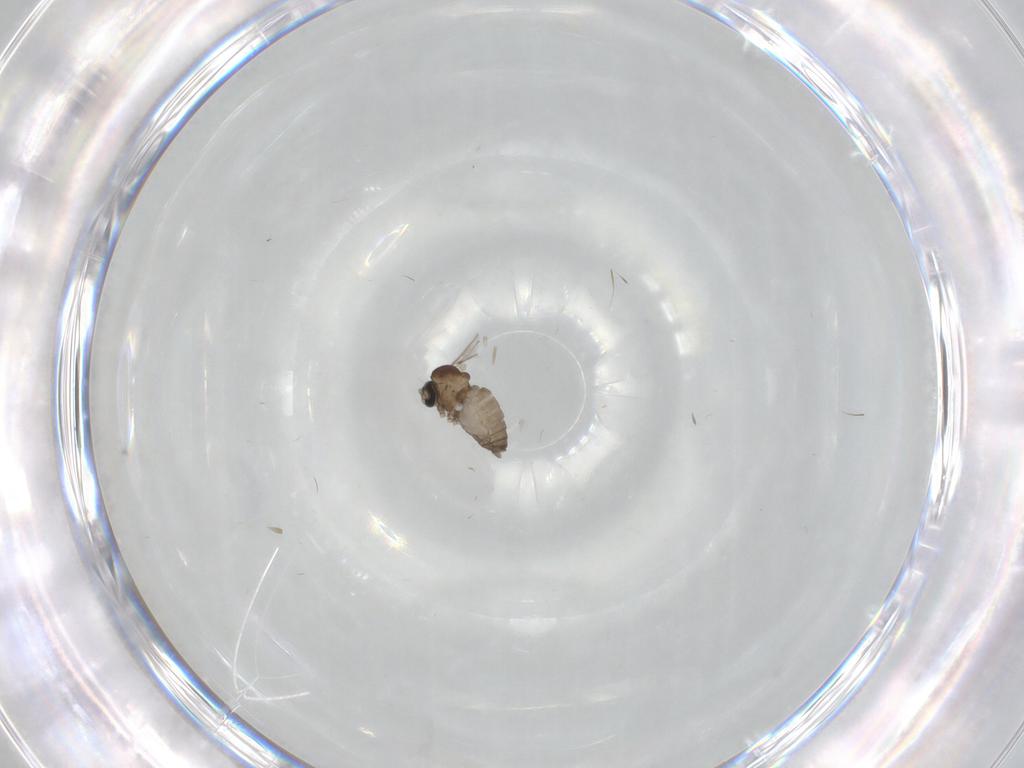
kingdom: Animalia
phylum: Arthropoda
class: Insecta
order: Diptera
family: Cecidomyiidae
